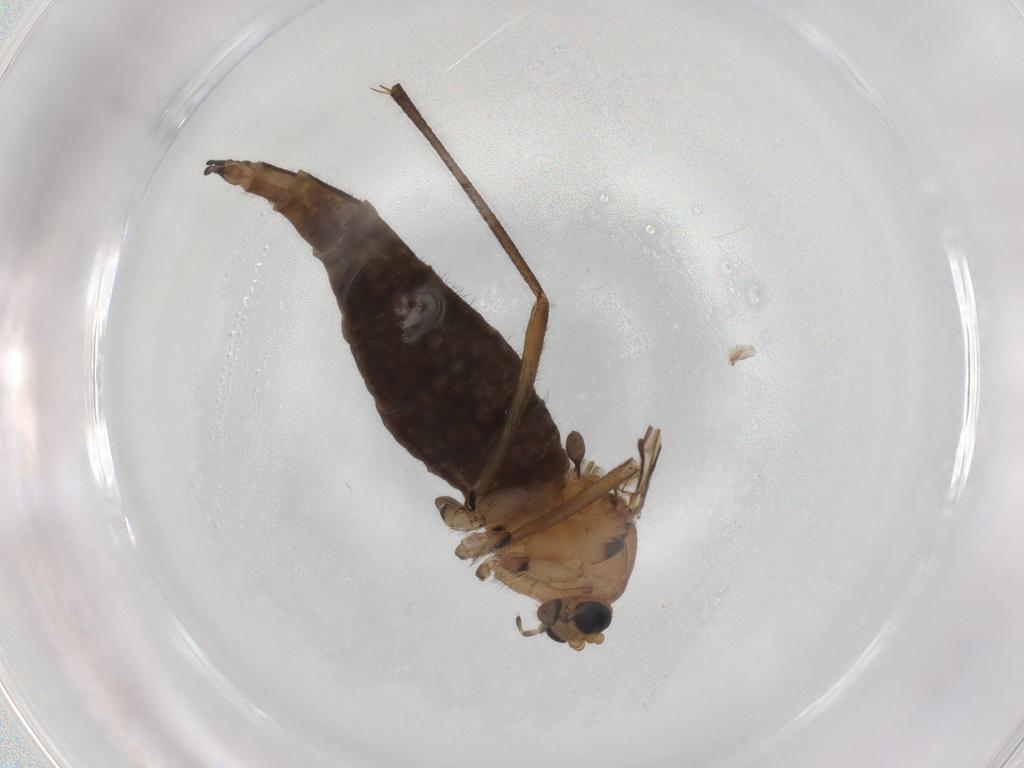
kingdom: Animalia
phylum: Arthropoda
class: Insecta
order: Diptera
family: Sciaridae
